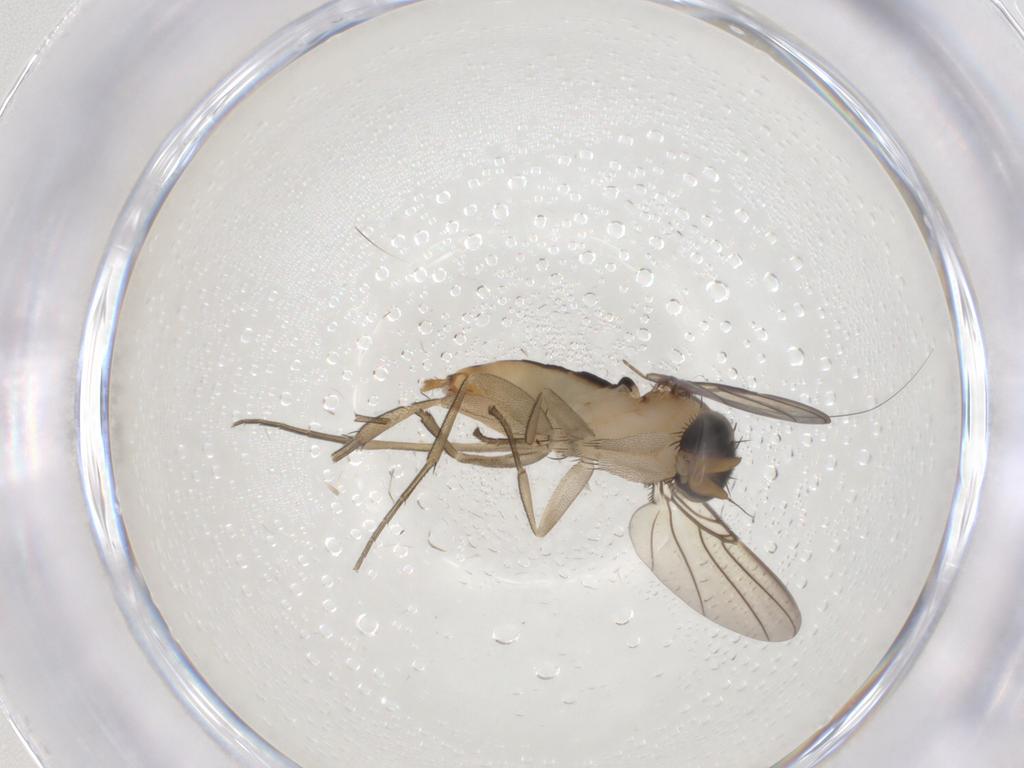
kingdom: Animalia
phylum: Arthropoda
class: Insecta
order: Diptera
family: Phoridae
